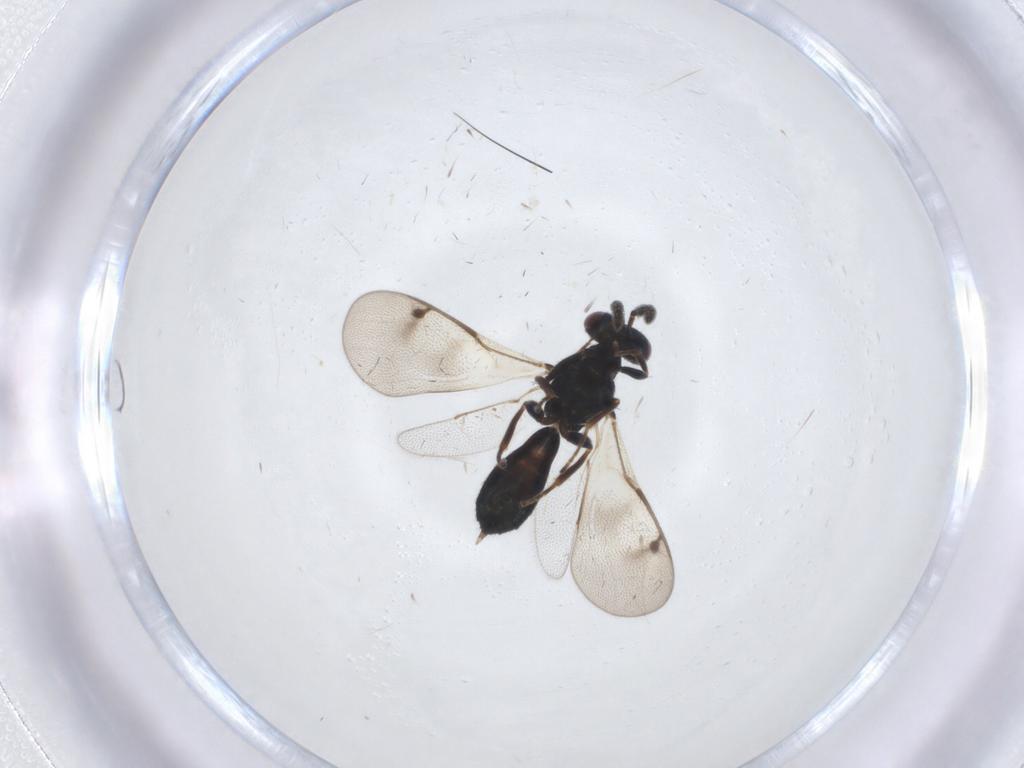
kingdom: Animalia
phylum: Arthropoda
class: Insecta
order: Hymenoptera
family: Pteromalidae
